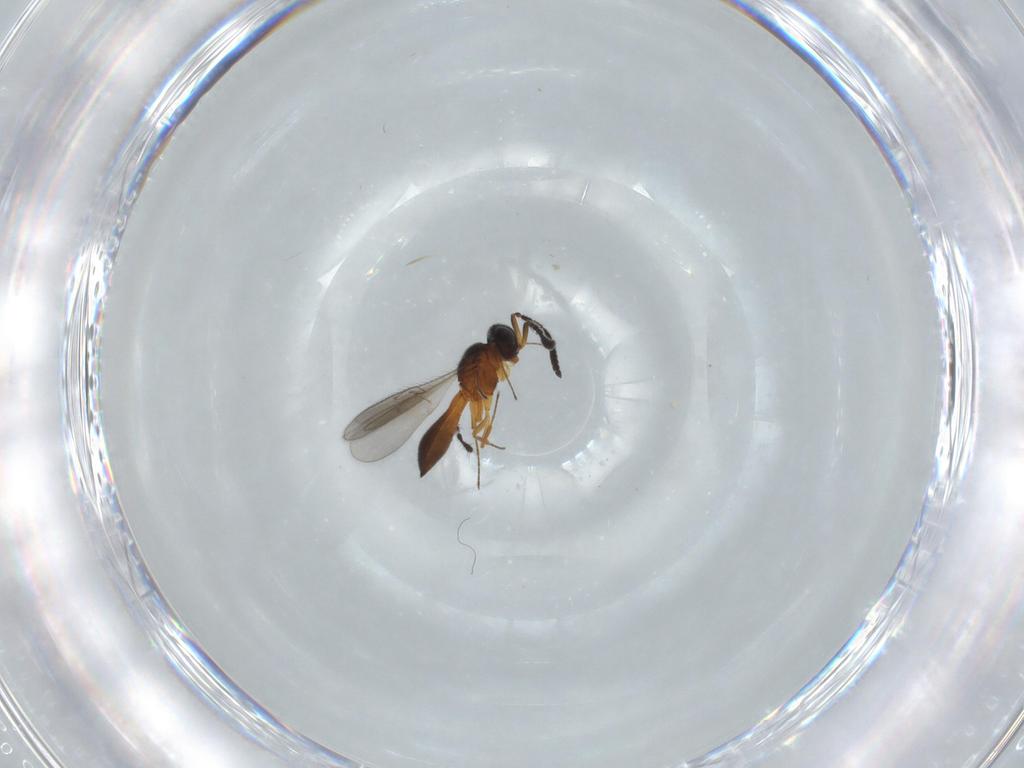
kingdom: Animalia
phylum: Arthropoda
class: Insecta
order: Hymenoptera
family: Scelionidae
